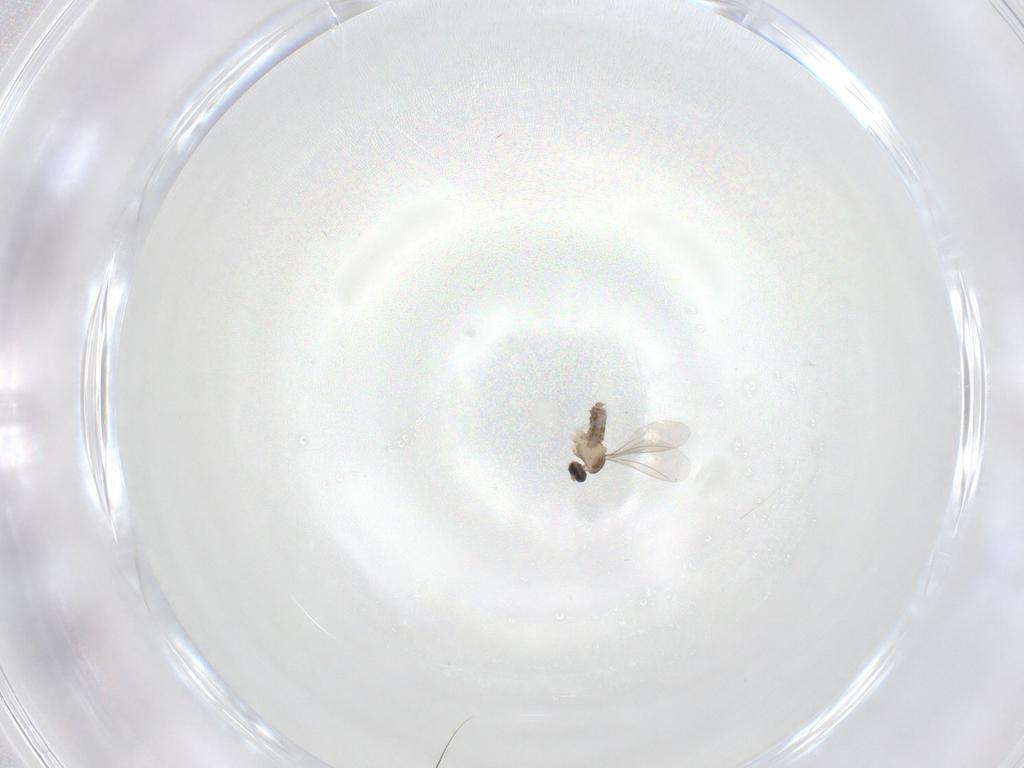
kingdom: Animalia
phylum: Arthropoda
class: Insecta
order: Diptera
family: Cecidomyiidae
